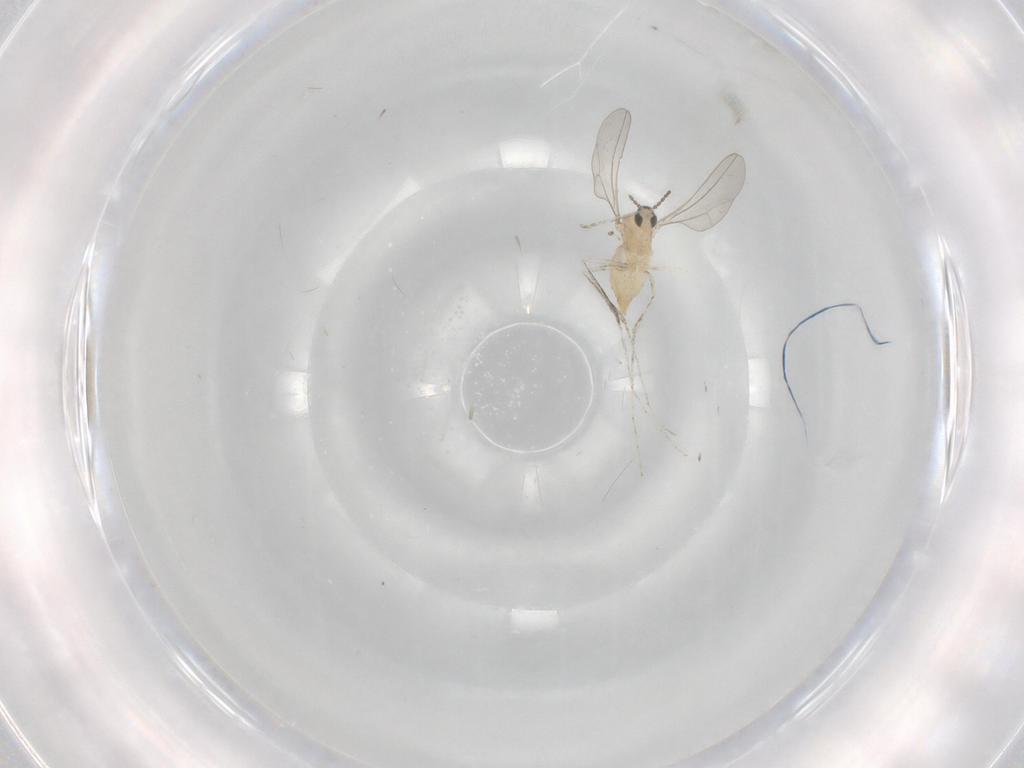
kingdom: Animalia
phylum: Arthropoda
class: Insecta
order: Diptera
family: Cecidomyiidae
